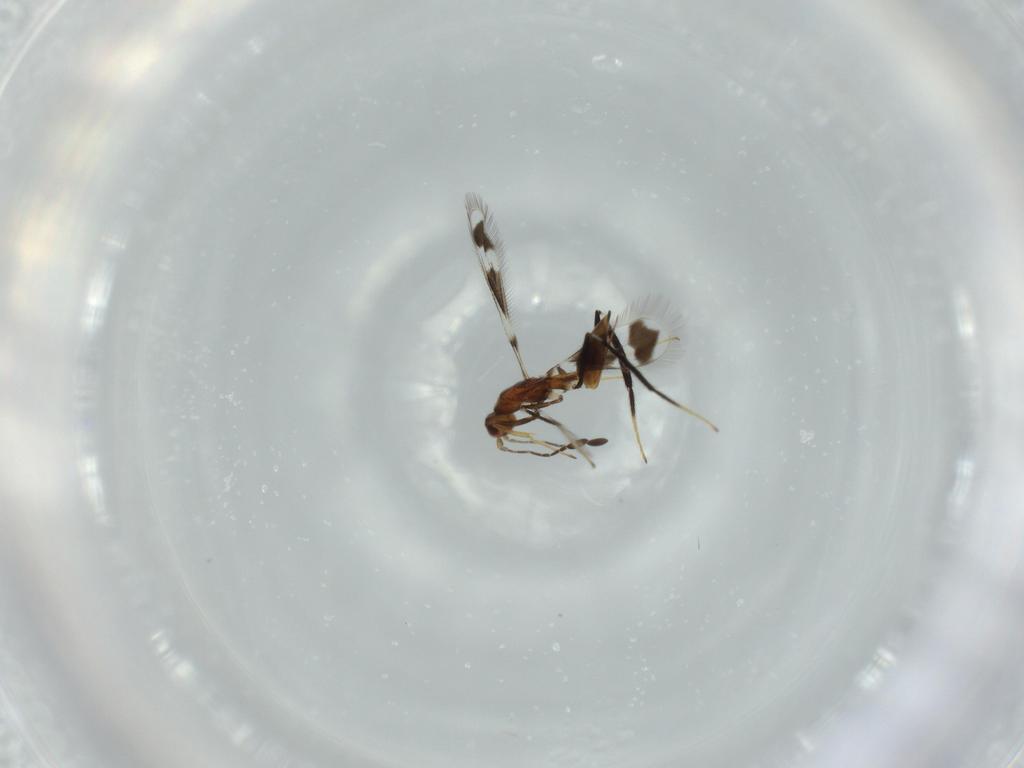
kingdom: Animalia
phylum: Arthropoda
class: Insecta
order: Hymenoptera
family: Mymaridae
